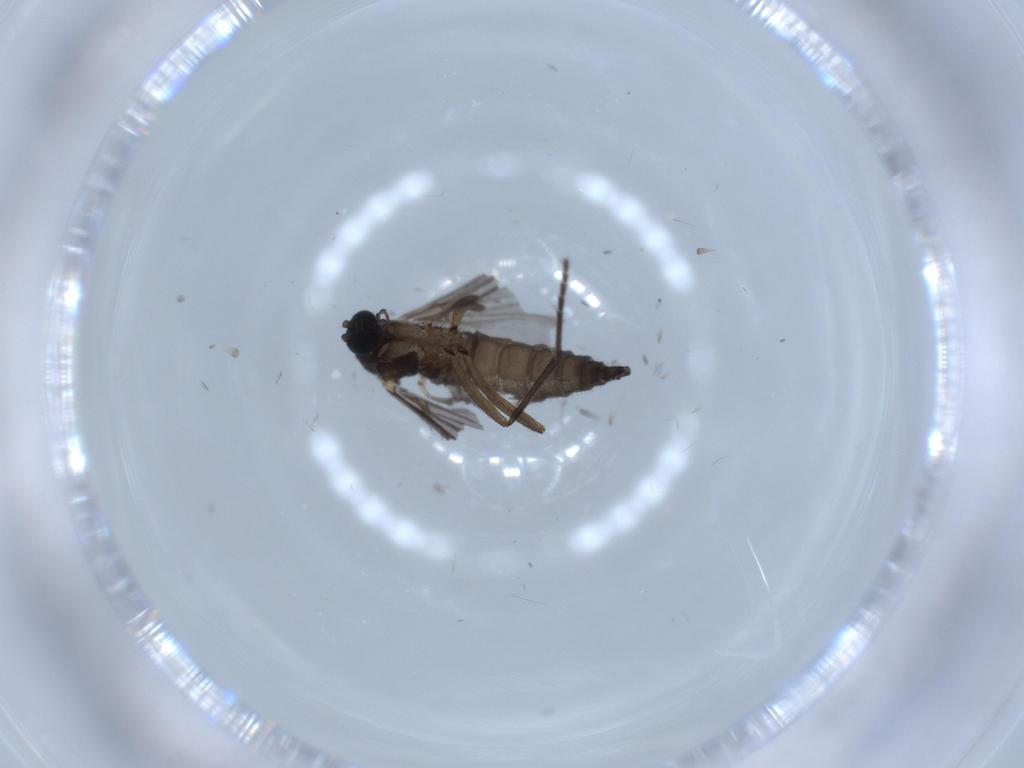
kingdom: Animalia
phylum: Arthropoda
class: Insecta
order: Diptera
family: Sciaridae
